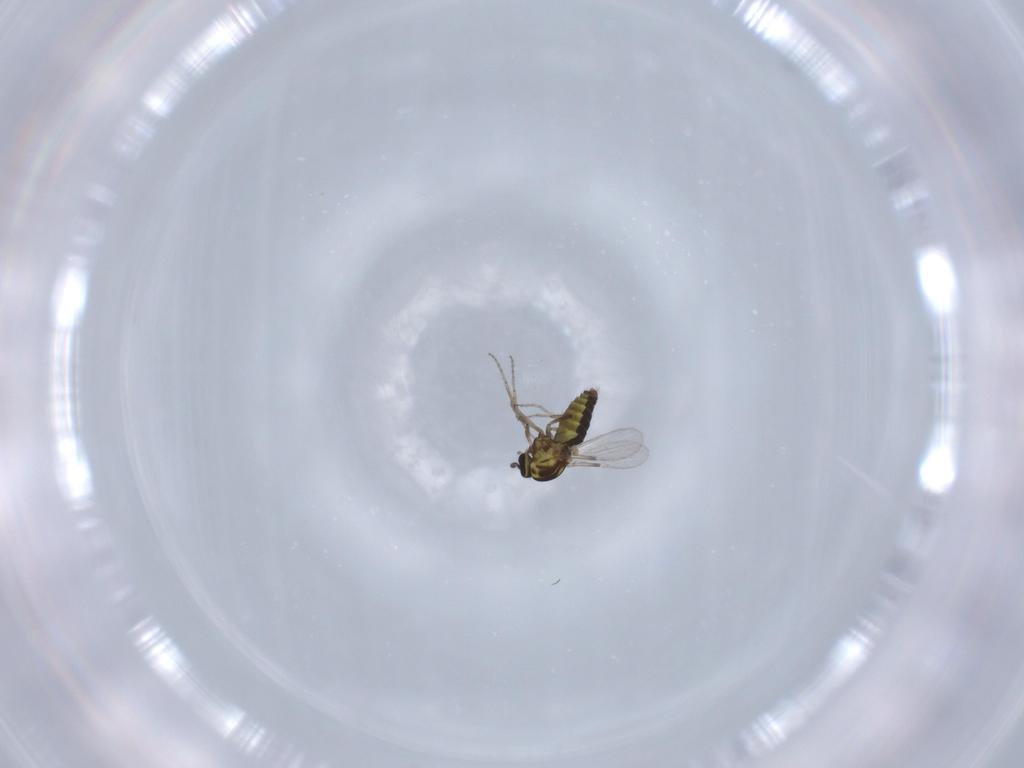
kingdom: Animalia
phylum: Arthropoda
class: Insecta
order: Diptera
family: Ceratopogonidae
